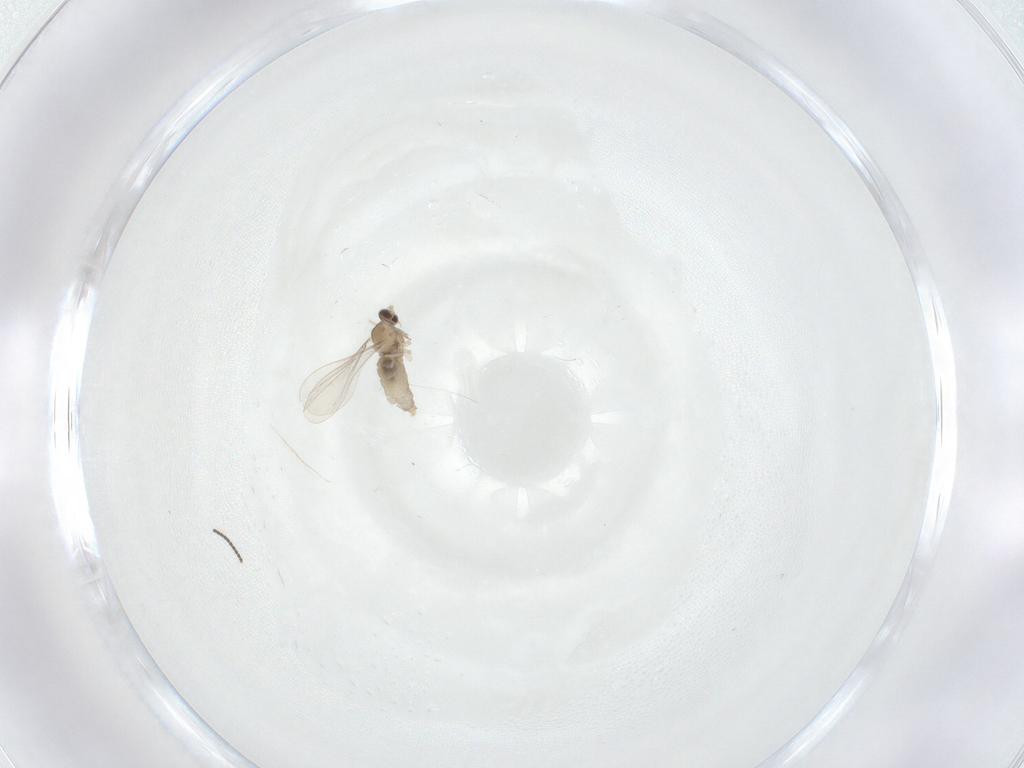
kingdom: Animalia
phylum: Arthropoda
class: Insecta
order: Diptera
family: Cecidomyiidae
